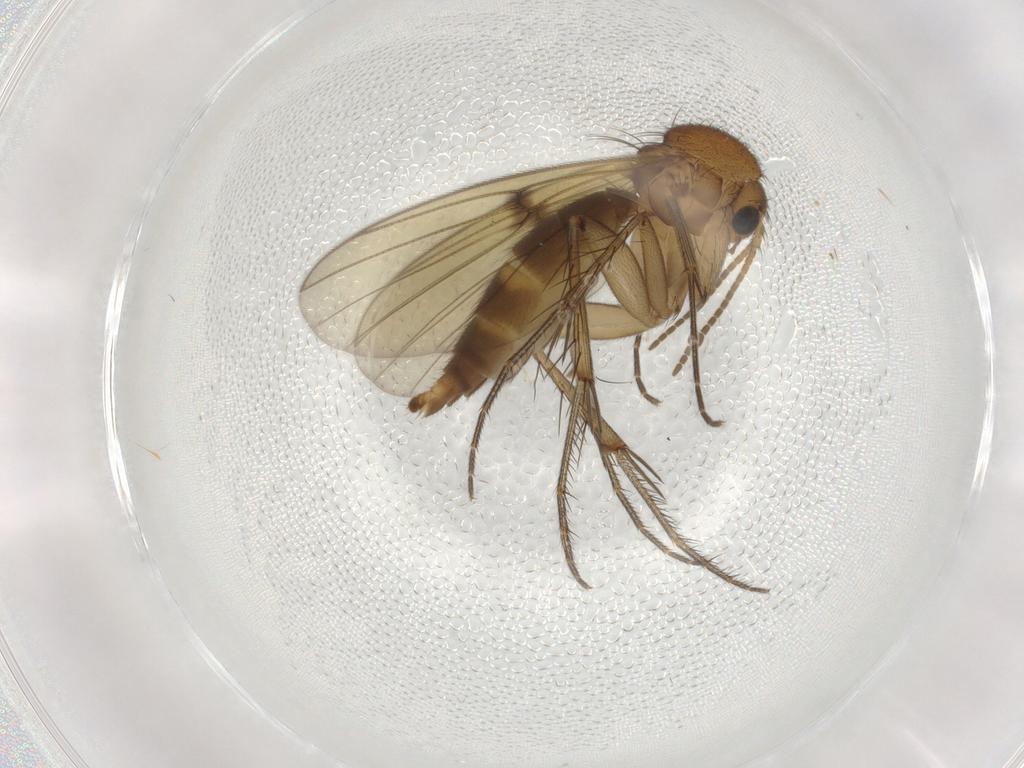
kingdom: Animalia
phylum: Arthropoda
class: Insecta
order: Diptera
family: Mycetophilidae
